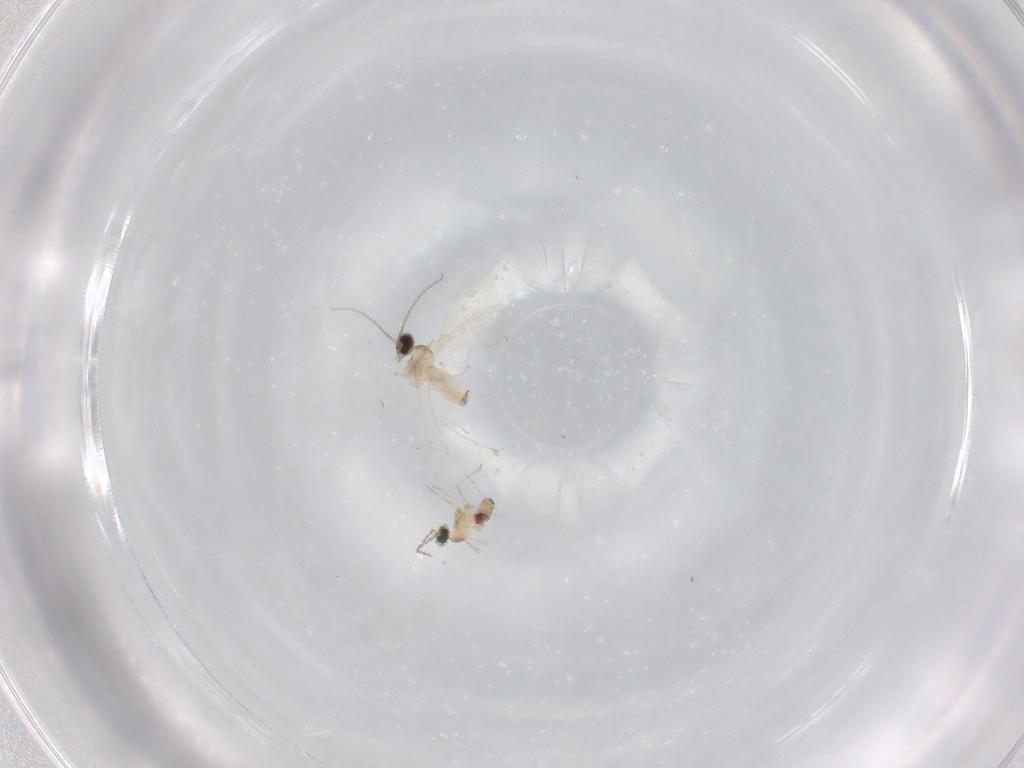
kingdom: Animalia
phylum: Arthropoda
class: Insecta
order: Diptera
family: Cecidomyiidae
